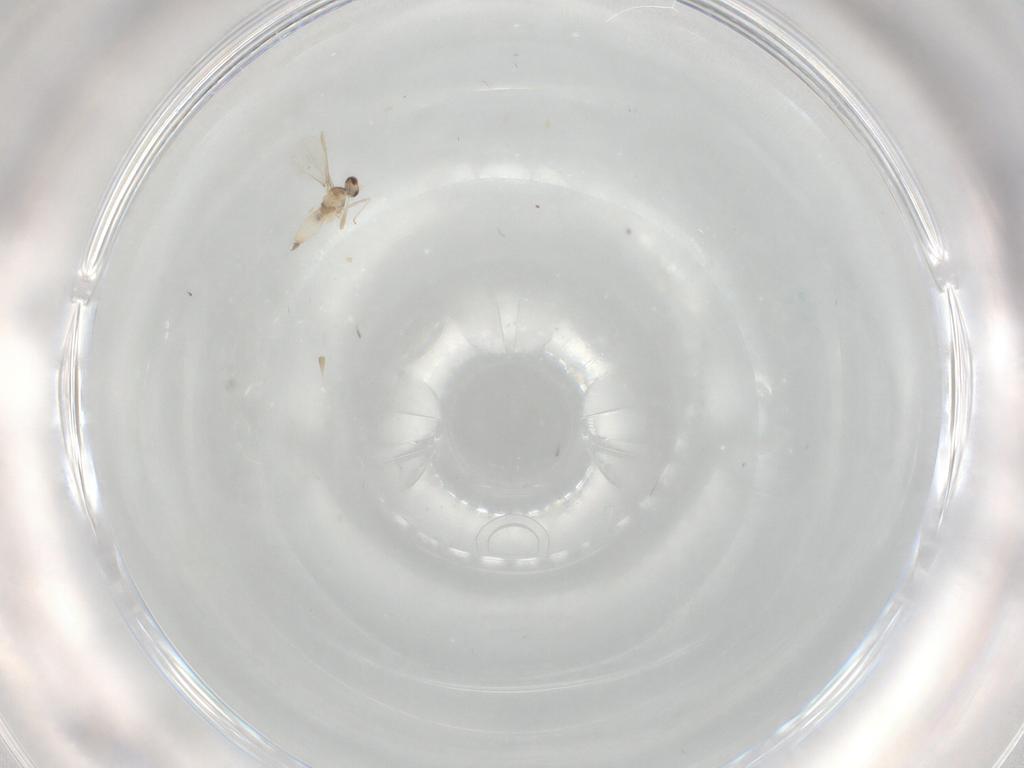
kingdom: Animalia
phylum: Arthropoda
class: Insecta
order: Diptera
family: Cecidomyiidae
